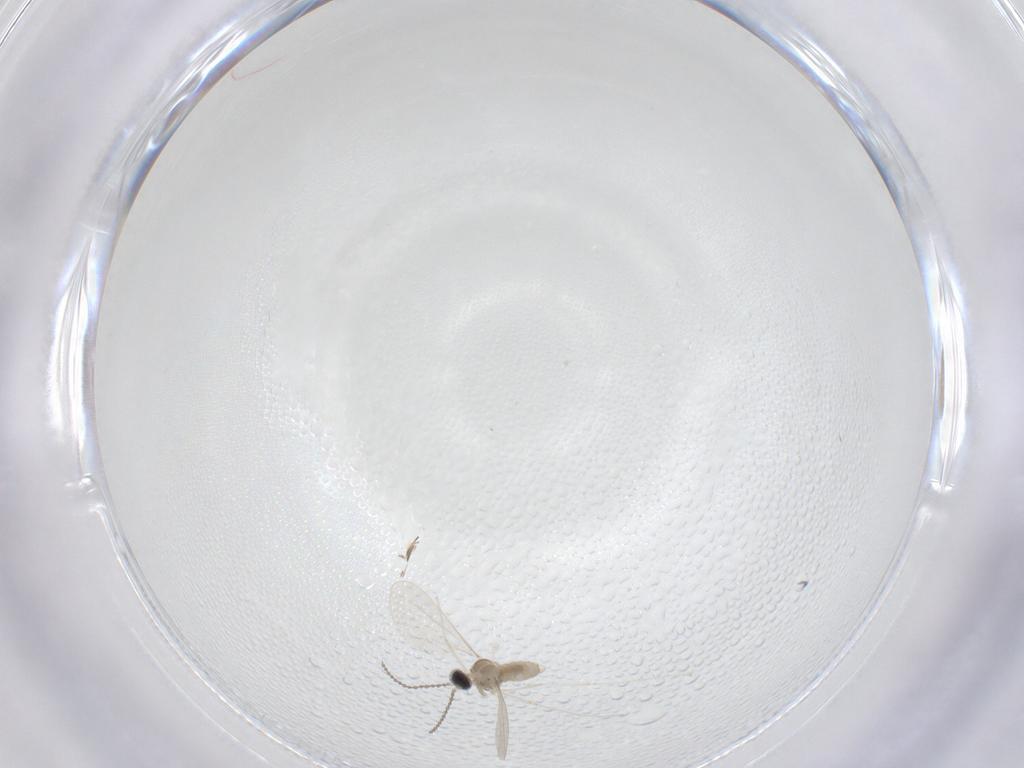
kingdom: Animalia
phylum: Arthropoda
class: Insecta
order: Diptera
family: Cecidomyiidae
